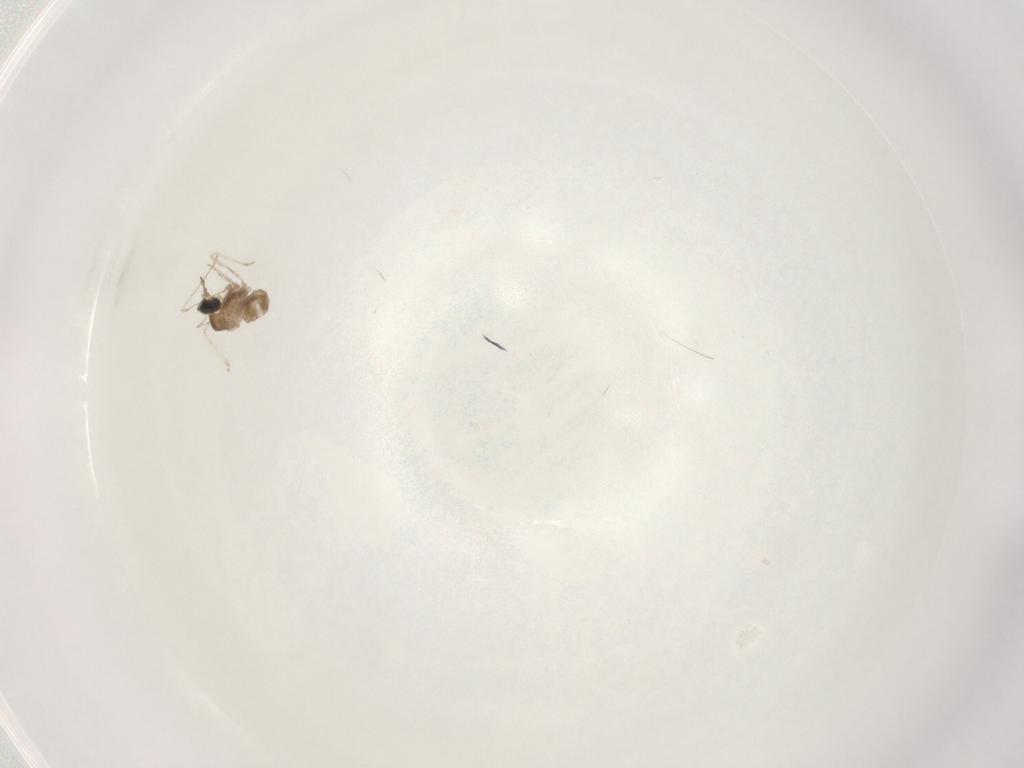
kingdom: Animalia
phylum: Arthropoda
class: Insecta
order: Diptera
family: Cecidomyiidae
